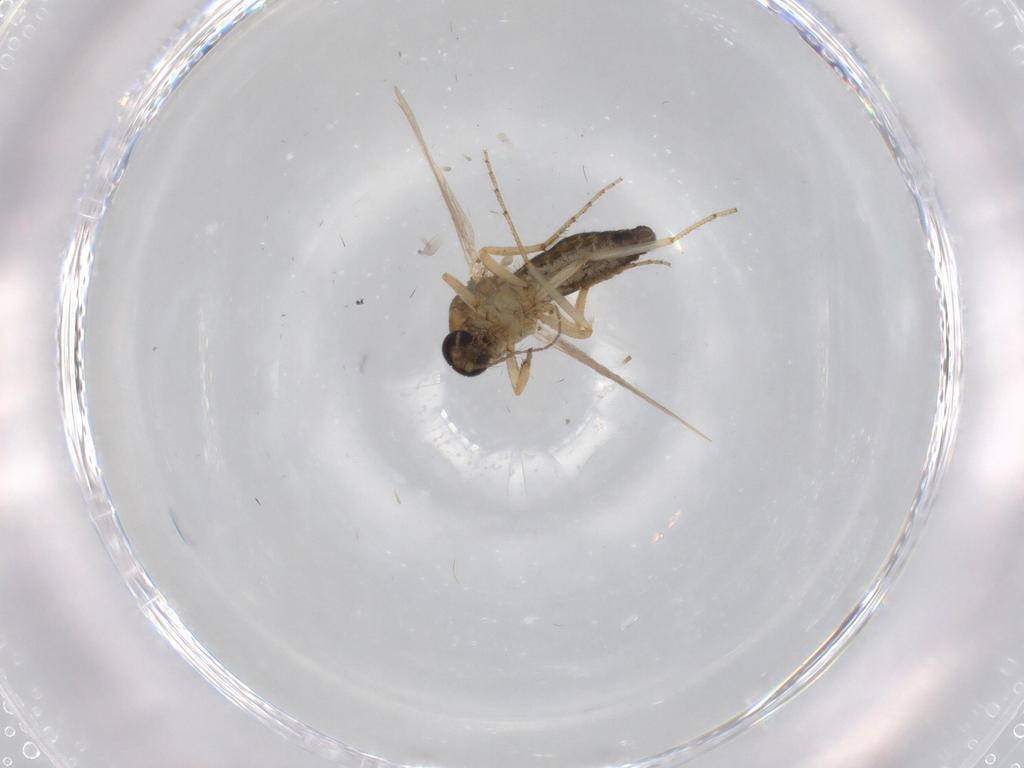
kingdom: Animalia
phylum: Arthropoda
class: Insecta
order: Diptera
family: Ceratopogonidae
